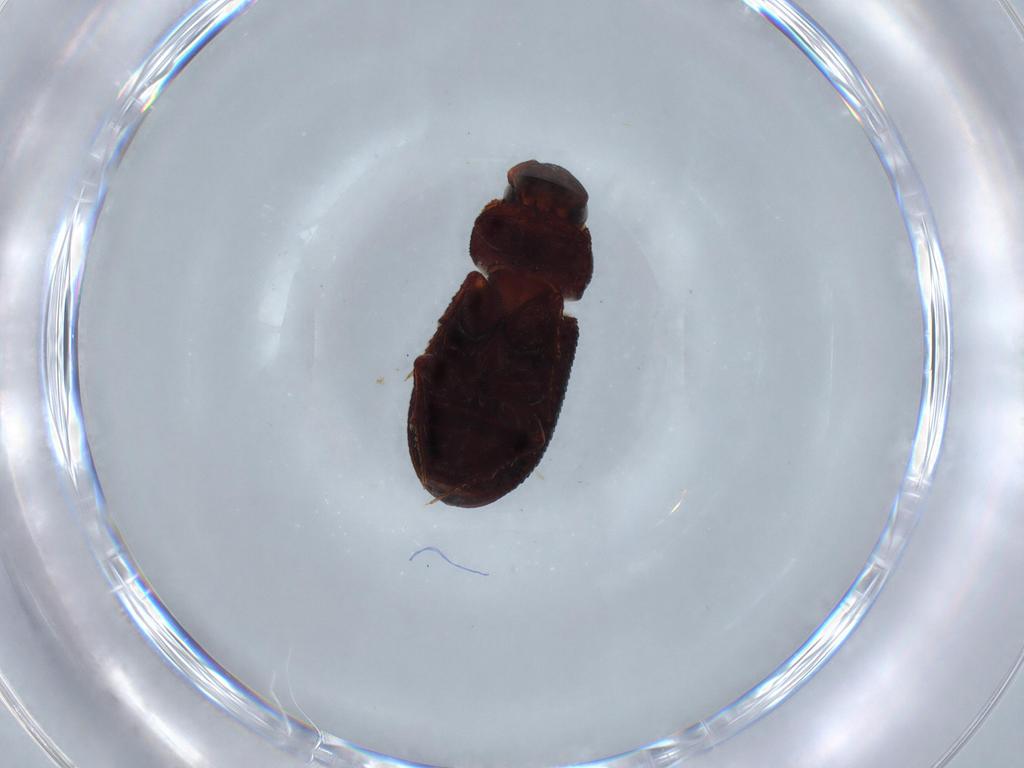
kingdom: Animalia
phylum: Arthropoda
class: Insecta
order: Coleoptera
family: Scarabaeidae
